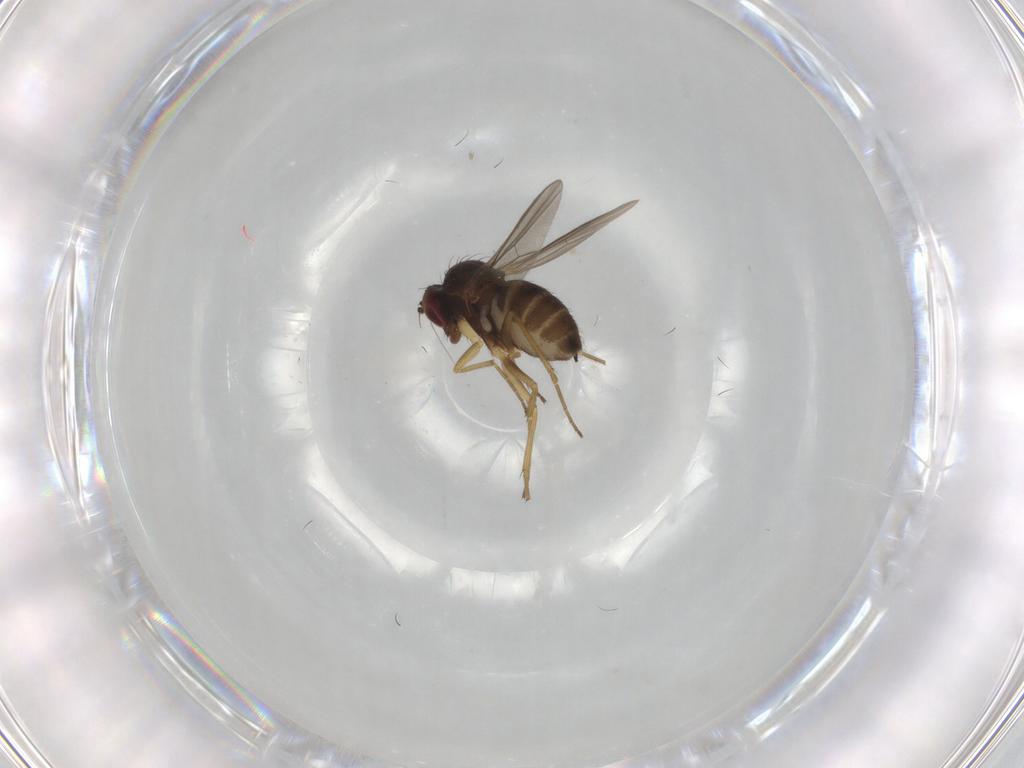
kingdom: Animalia
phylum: Arthropoda
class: Insecta
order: Diptera
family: Dolichopodidae
